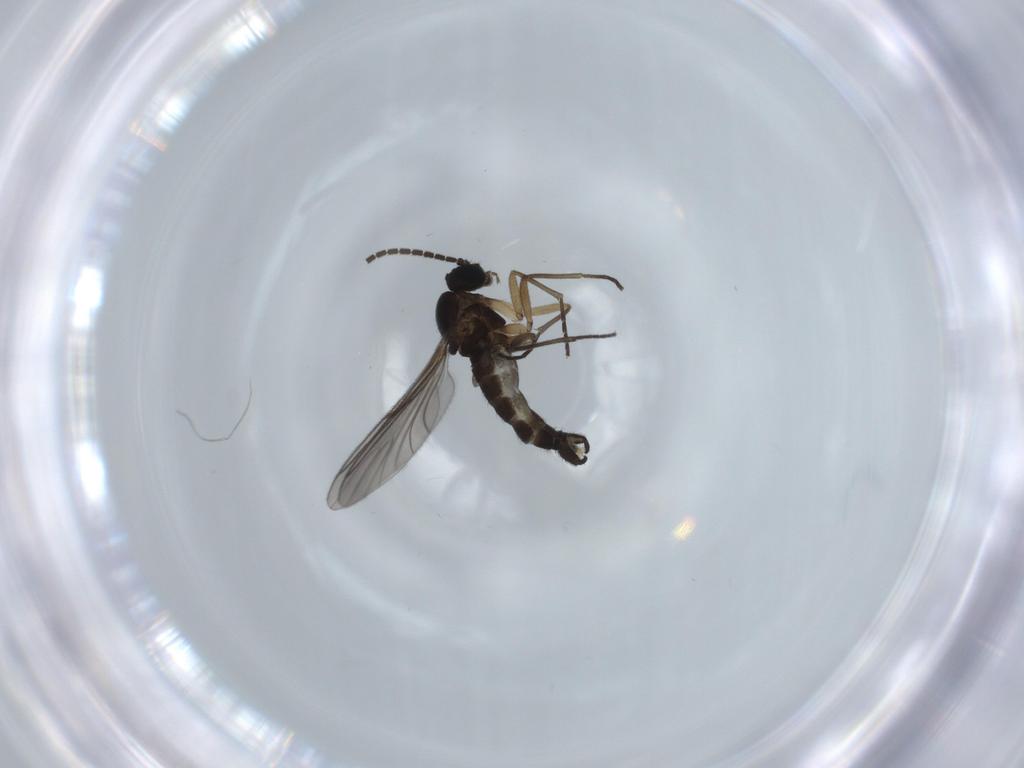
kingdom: Animalia
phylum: Arthropoda
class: Insecta
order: Diptera
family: Sciaridae
